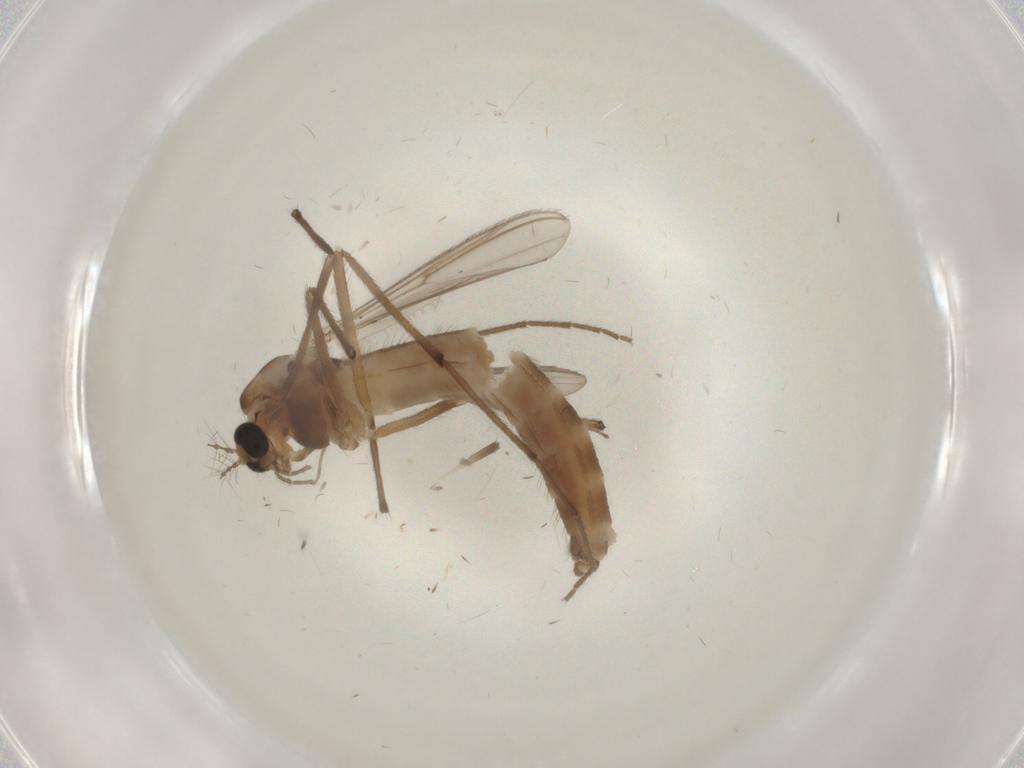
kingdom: Animalia
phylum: Arthropoda
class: Insecta
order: Diptera
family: Chironomidae
